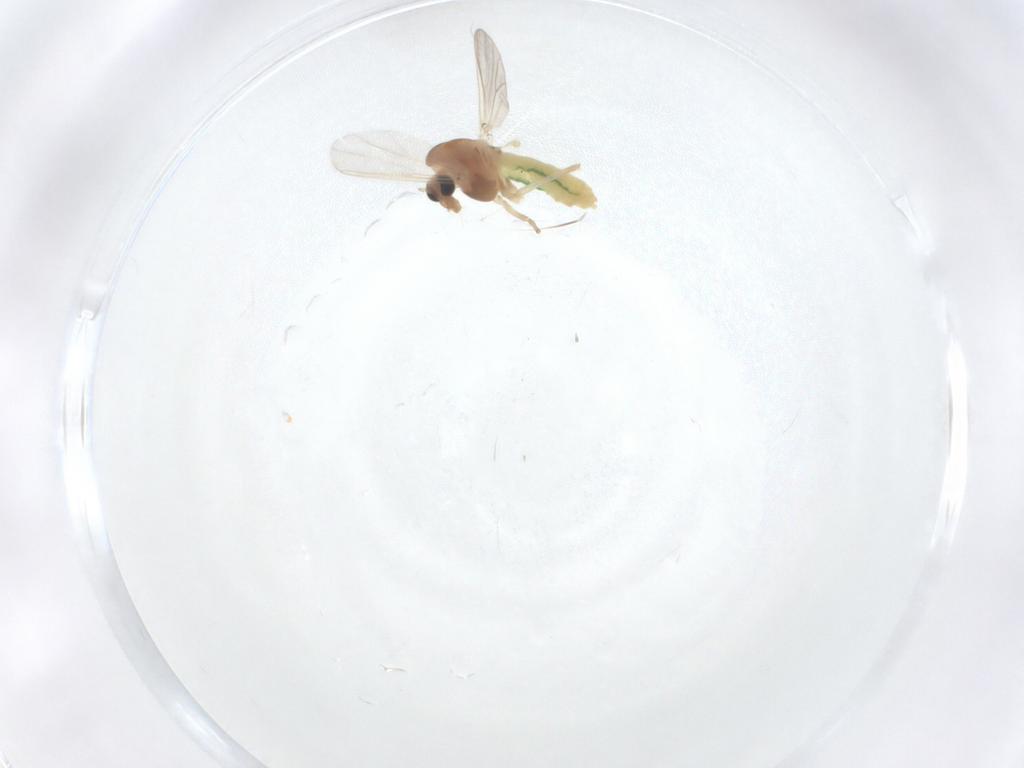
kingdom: Animalia
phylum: Arthropoda
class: Insecta
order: Diptera
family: Chironomidae
